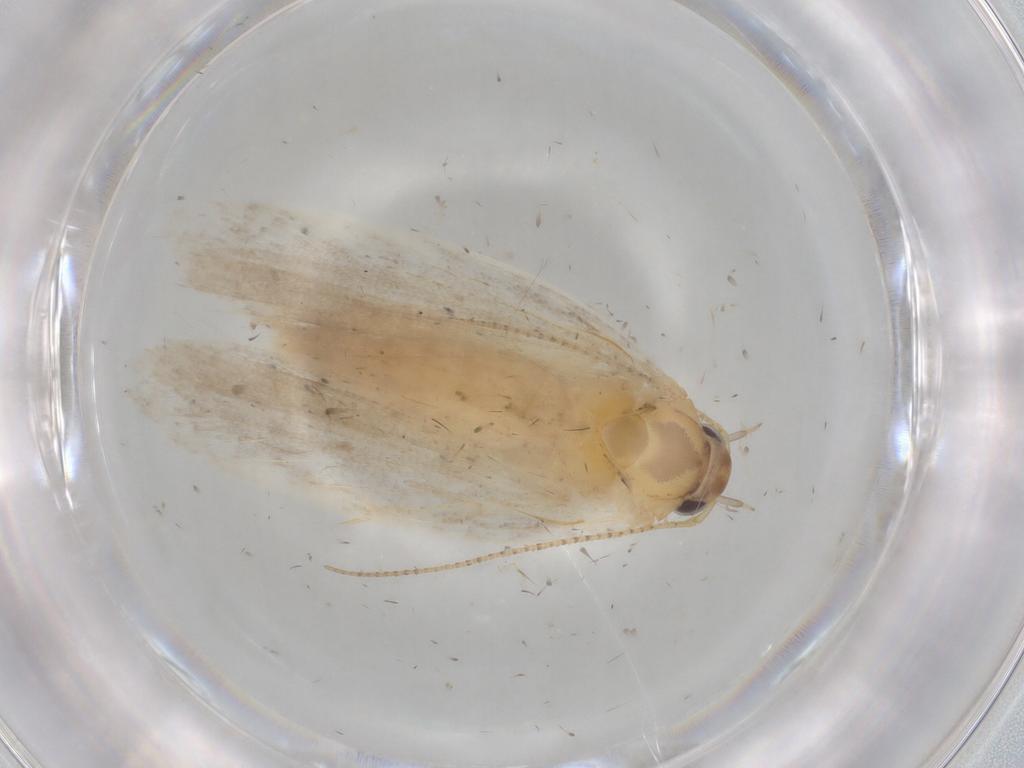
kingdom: Animalia
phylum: Arthropoda
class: Insecta
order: Lepidoptera
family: Gelechiidae
